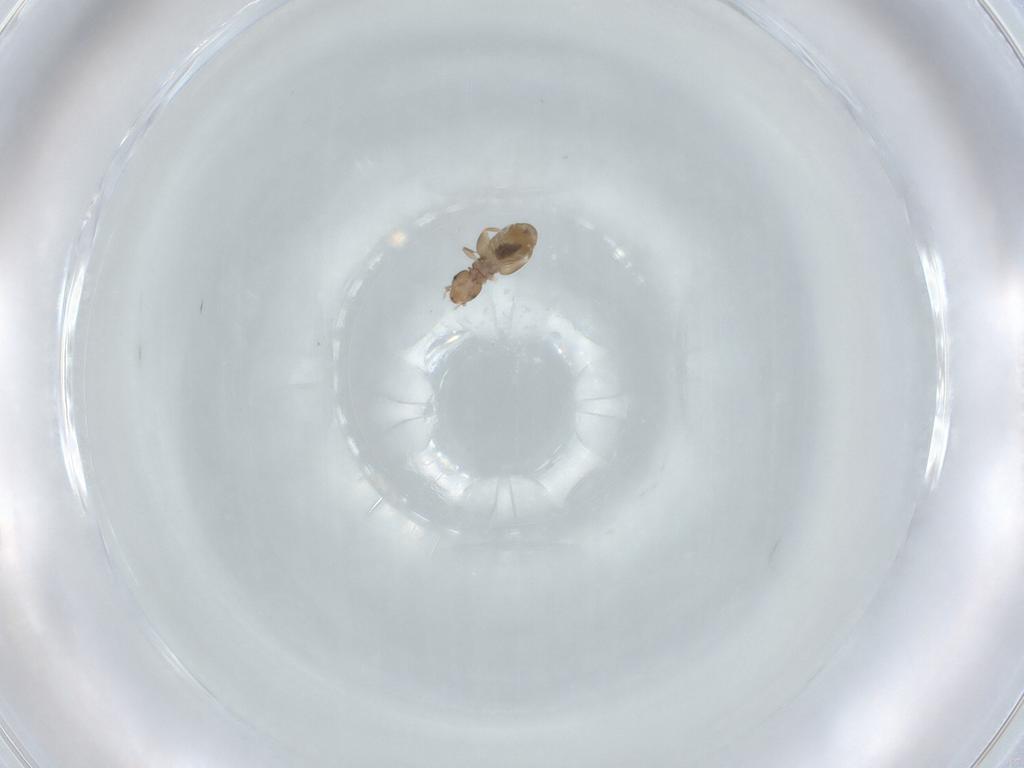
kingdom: Animalia
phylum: Arthropoda
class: Insecta
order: Psocodea
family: Liposcelididae
